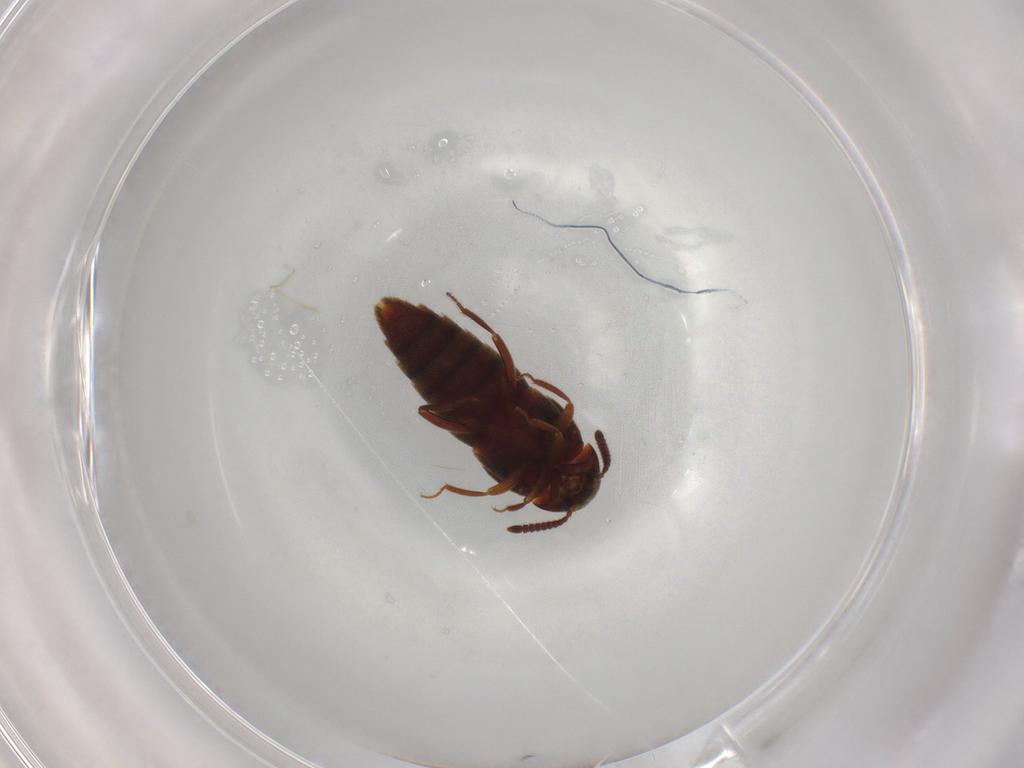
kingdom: Animalia
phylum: Arthropoda
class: Insecta
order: Coleoptera
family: Staphylinidae
